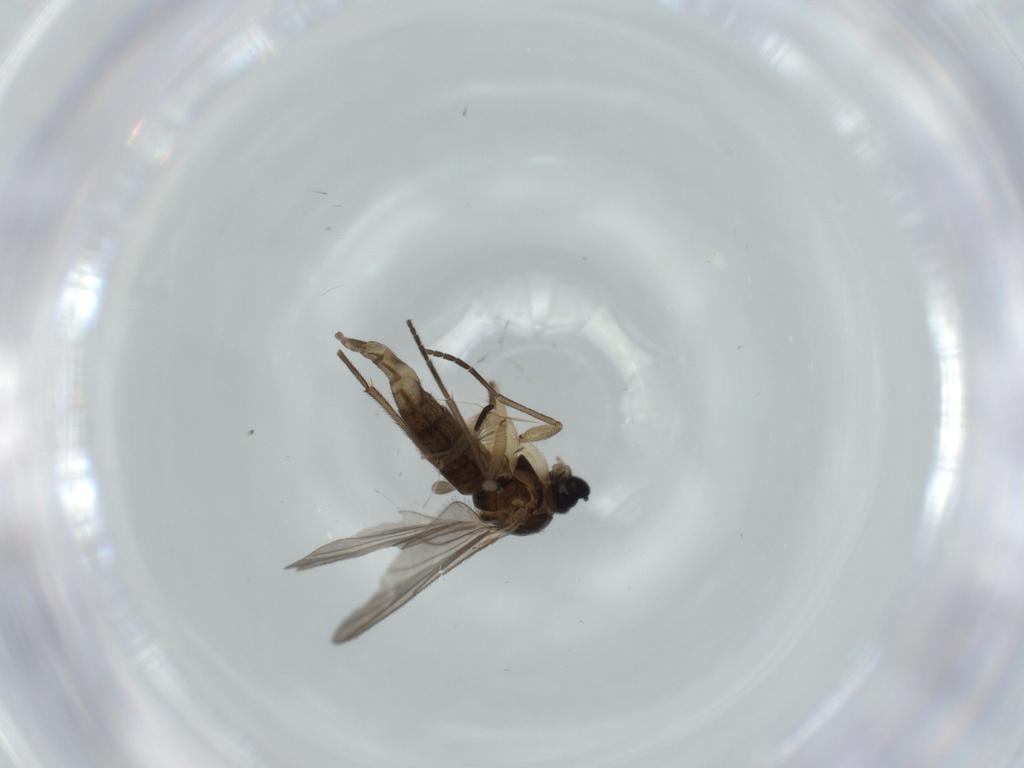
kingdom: Animalia
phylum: Arthropoda
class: Insecta
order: Diptera
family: Sciaridae
